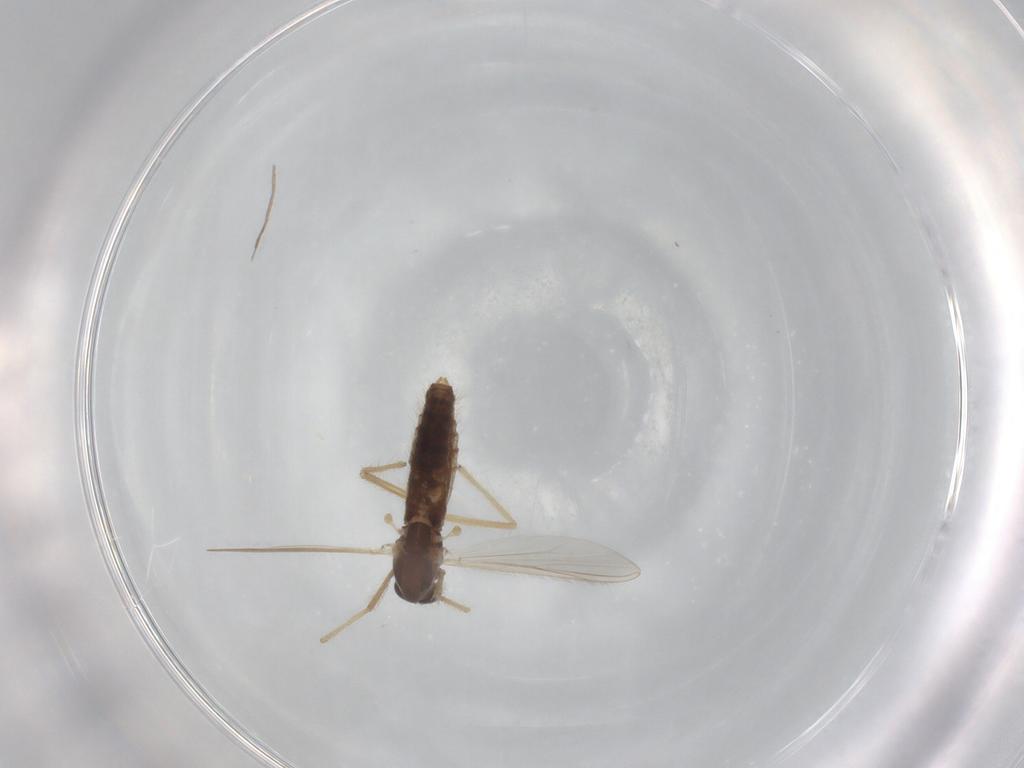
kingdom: Animalia
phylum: Arthropoda
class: Insecta
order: Diptera
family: Chironomidae
